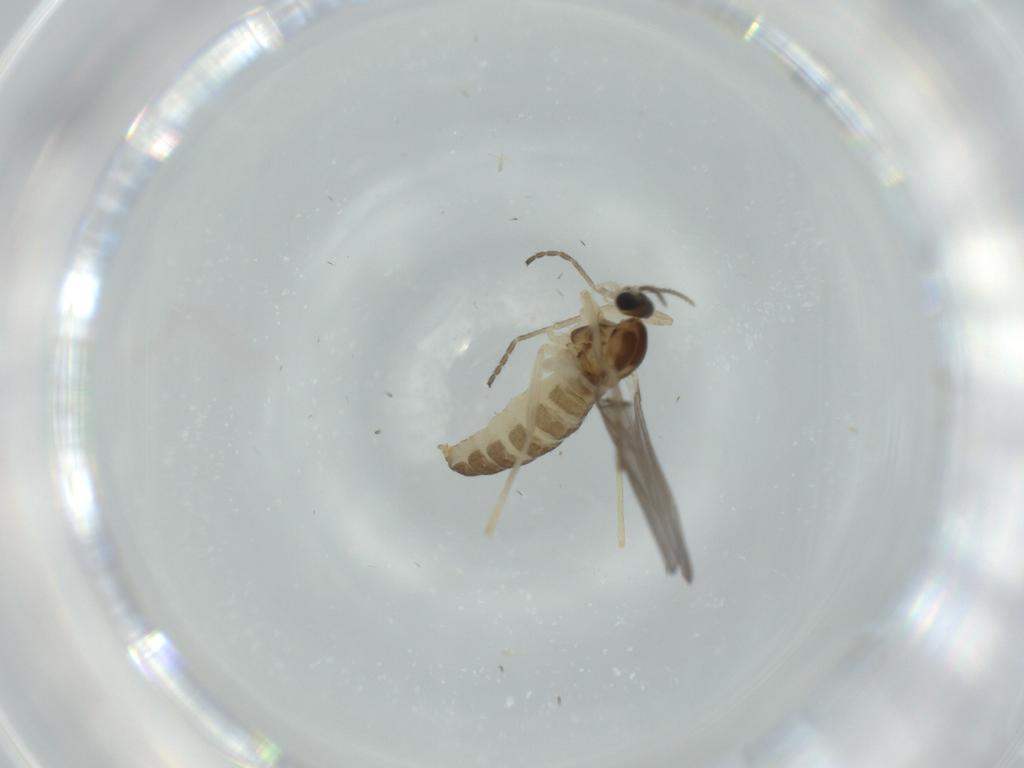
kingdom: Animalia
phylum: Arthropoda
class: Insecta
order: Diptera
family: Cecidomyiidae
